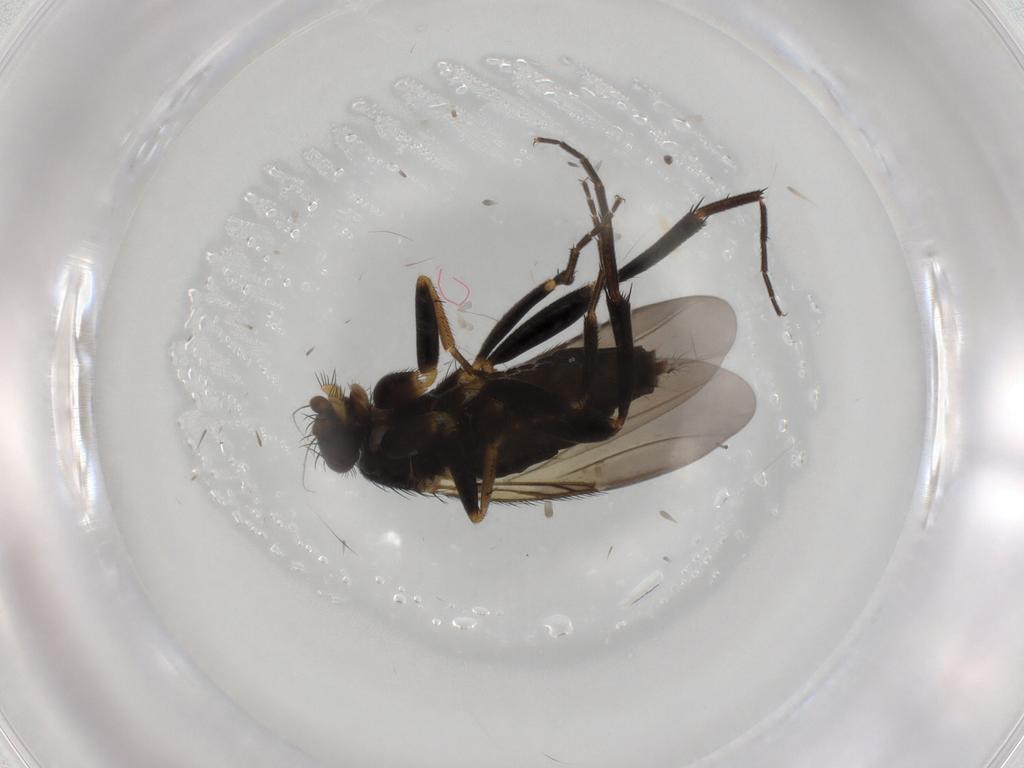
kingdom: Animalia
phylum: Arthropoda
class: Insecta
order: Diptera
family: Phoridae
